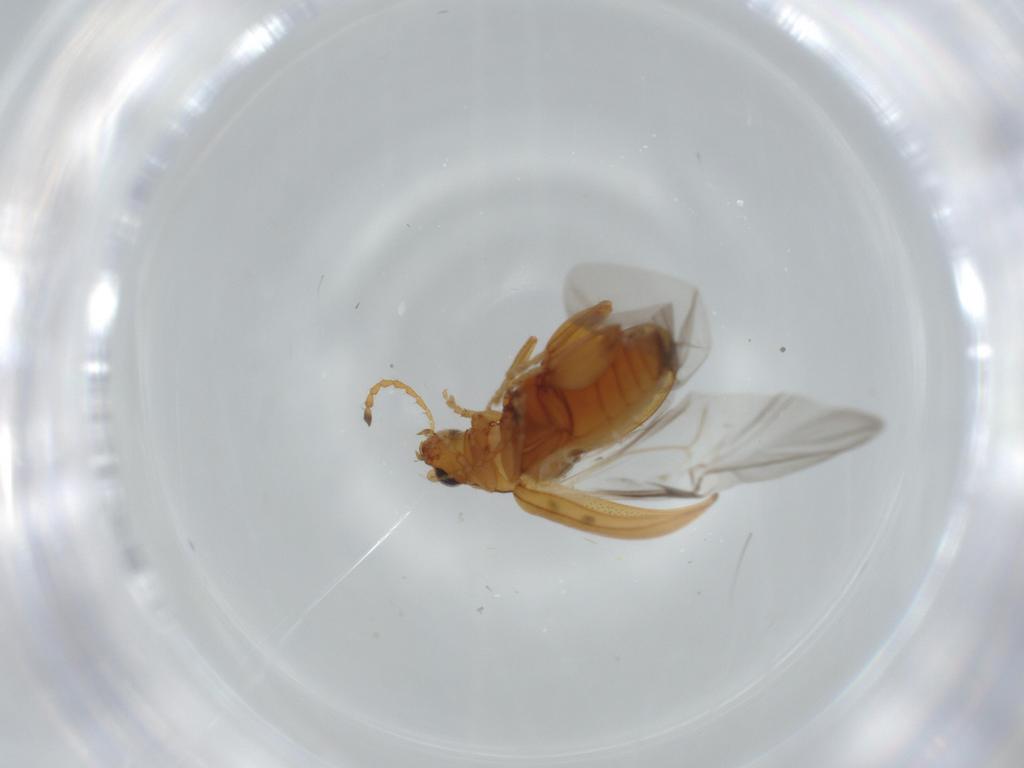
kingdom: Animalia
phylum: Arthropoda
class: Insecta
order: Coleoptera
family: Chrysomelidae
